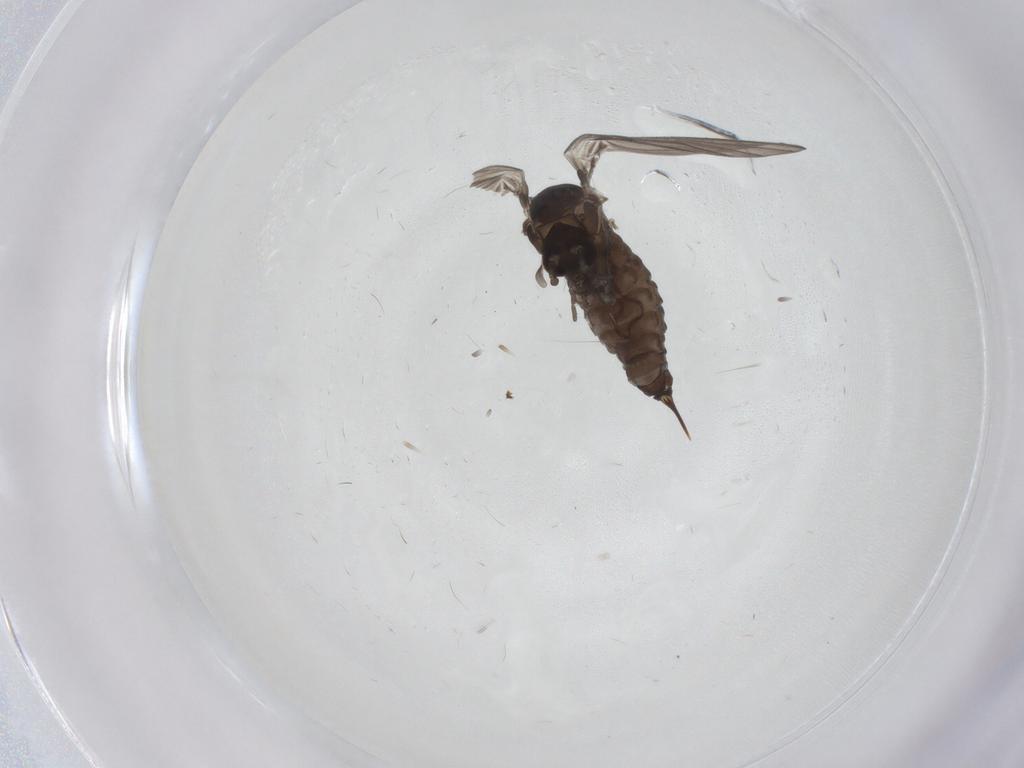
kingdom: Animalia
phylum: Arthropoda
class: Insecta
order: Diptera
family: Psychodidae
